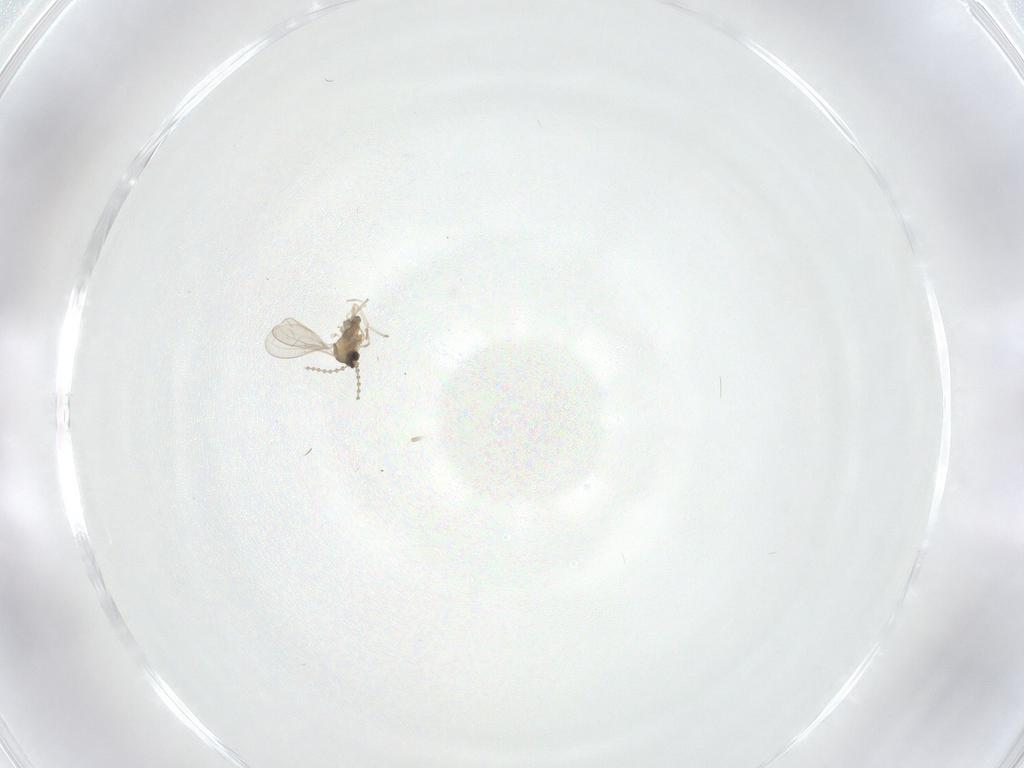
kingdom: Animalia
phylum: Arthropoda
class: Insecta
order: Diptera
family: Cecidomyiidae
